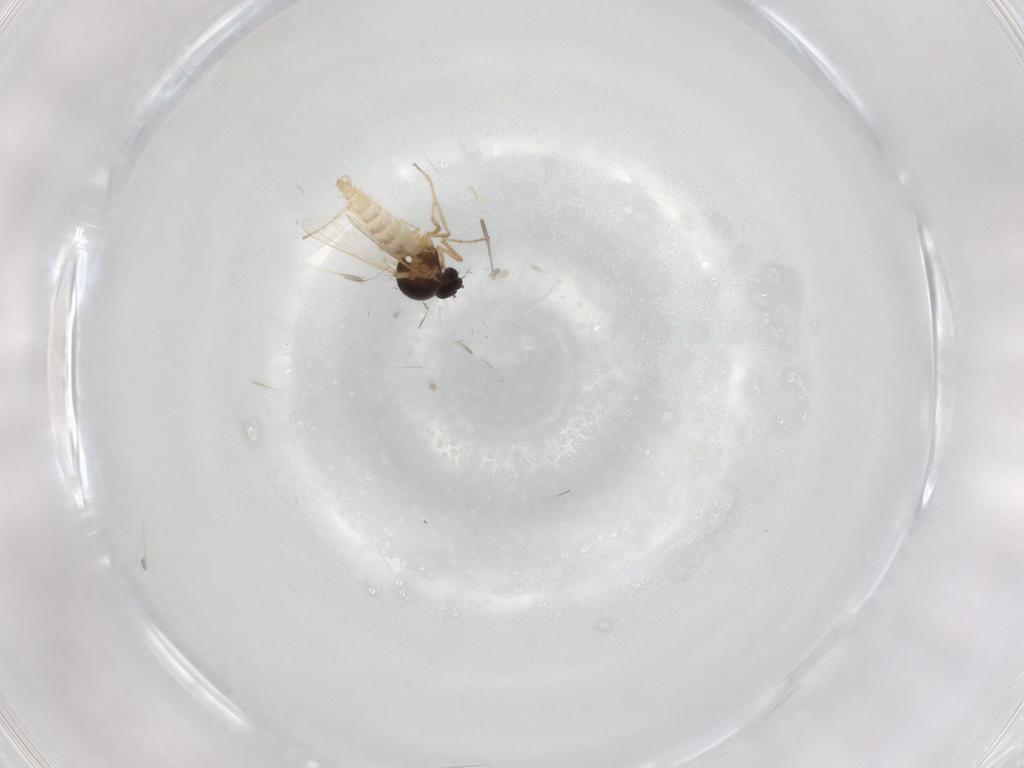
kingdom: Animalia
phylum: Arthropoda
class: Insecta
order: Diptera
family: Ceratopogonidae
